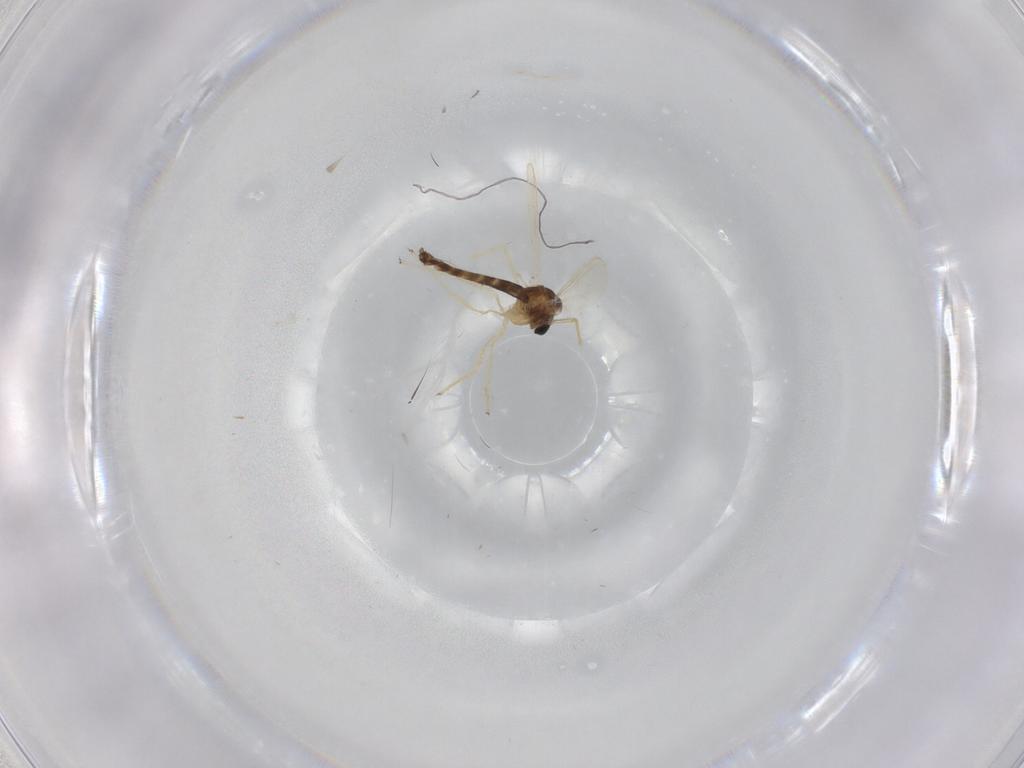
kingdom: Animalia
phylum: Arthropoda
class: Insecta
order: Diptera
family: Chironomidae
